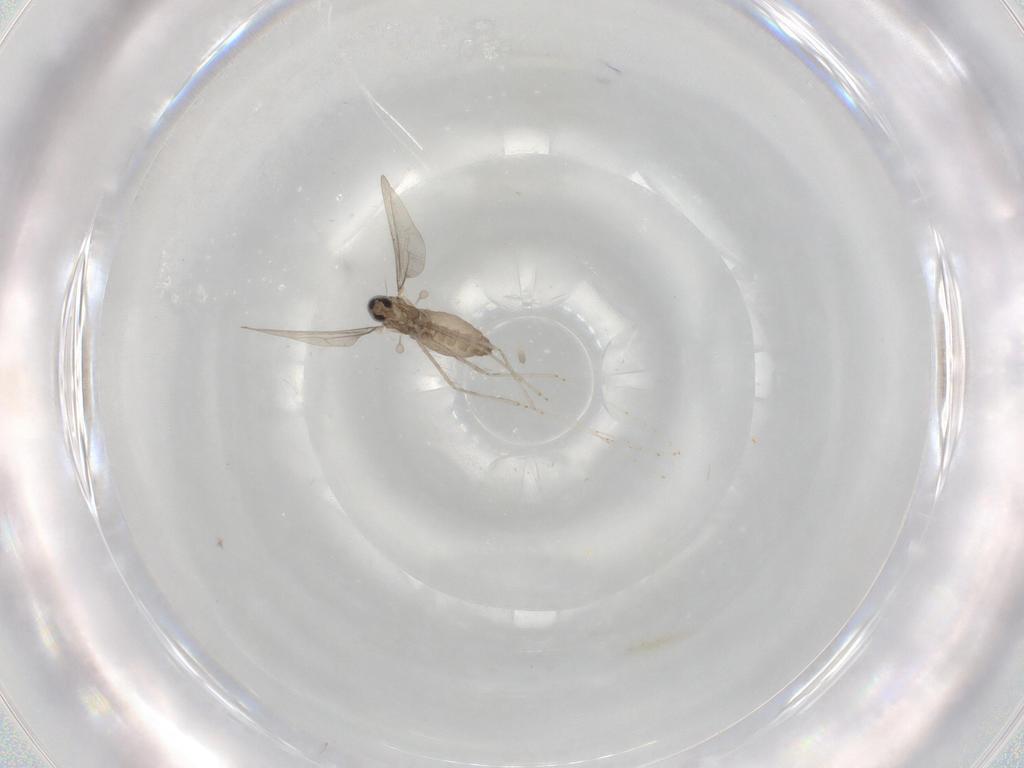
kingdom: Animalia
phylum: Arthropoda
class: Insecta
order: Diptera
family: Cecidomyiidae
